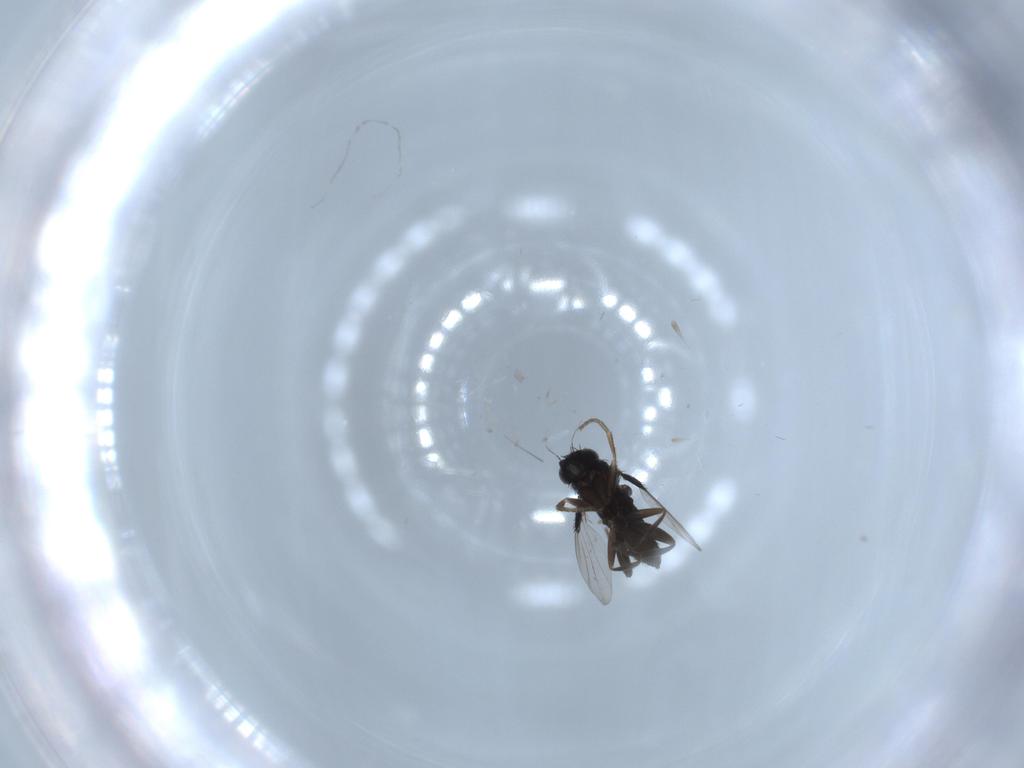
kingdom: Animalia
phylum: Arthropoda
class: Insecta
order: Diptera
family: Phoridae
